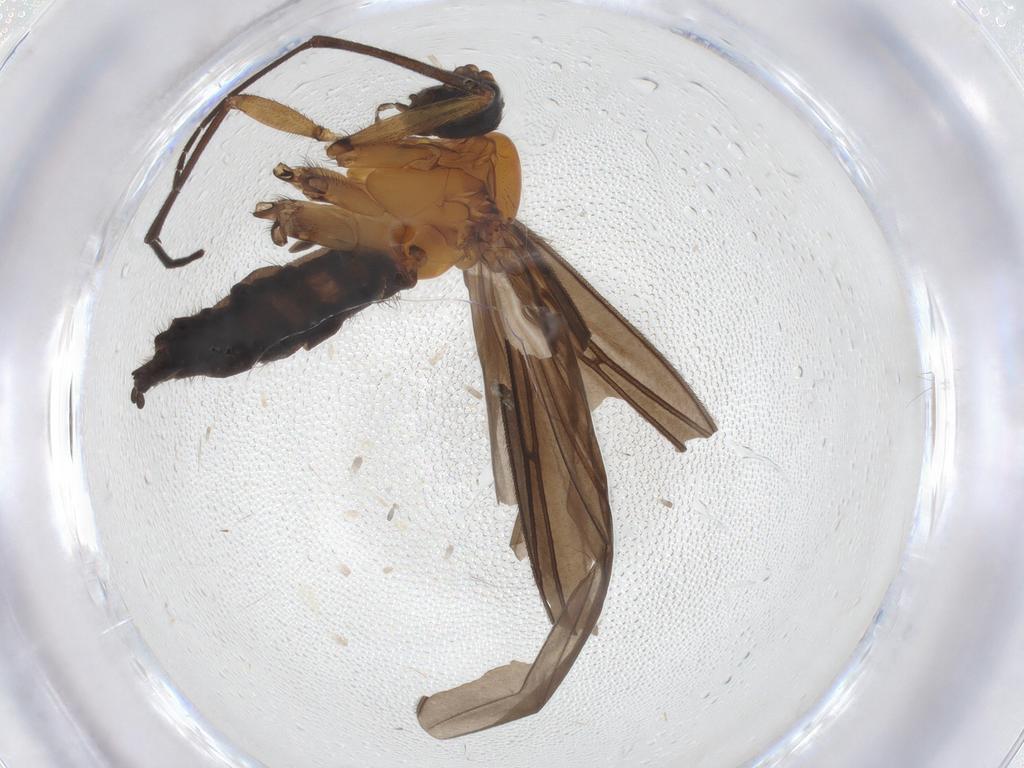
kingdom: Animalia
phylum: Arthropoda
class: Insecta
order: Diptera
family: Sciaridae
